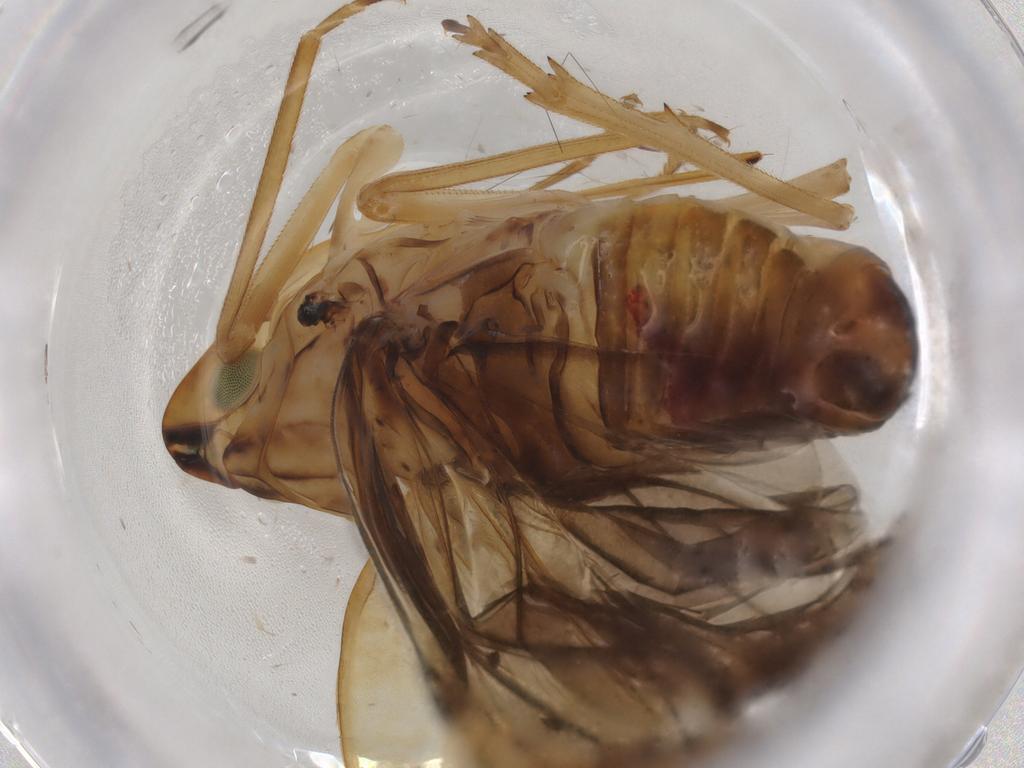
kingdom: Animalia
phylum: Arthropoda
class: Insecta
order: Hemiptera
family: Achilidae
